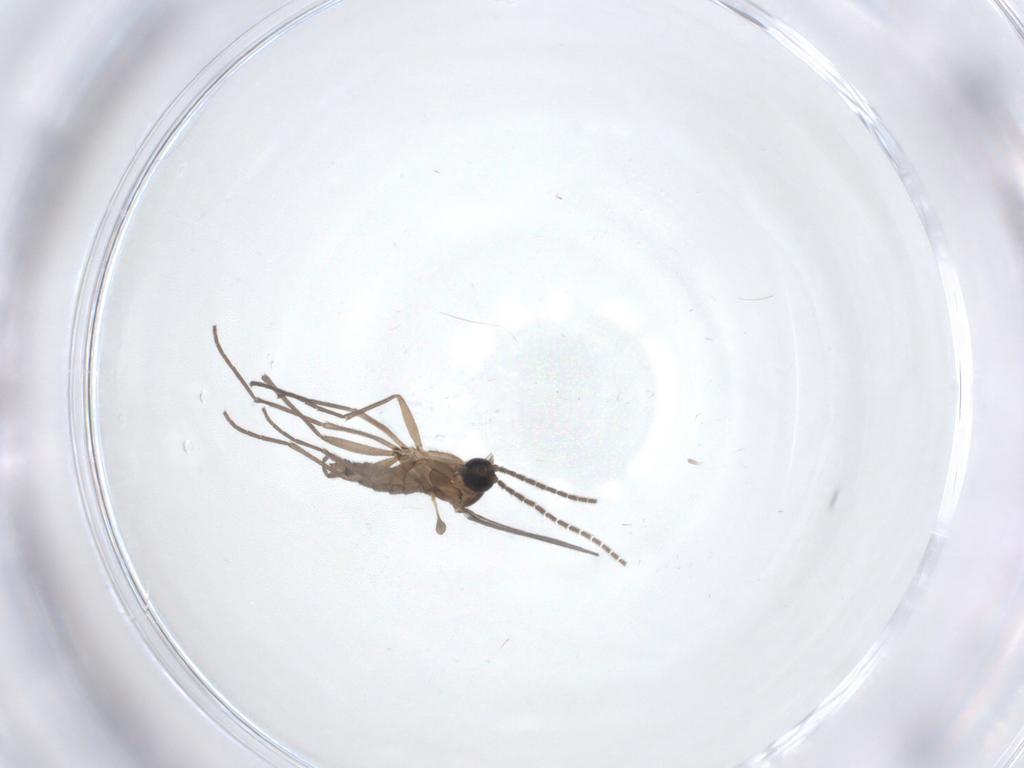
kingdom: Animalia
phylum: Arthropoda
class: Insecta
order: Diptera
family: Sciaridae
